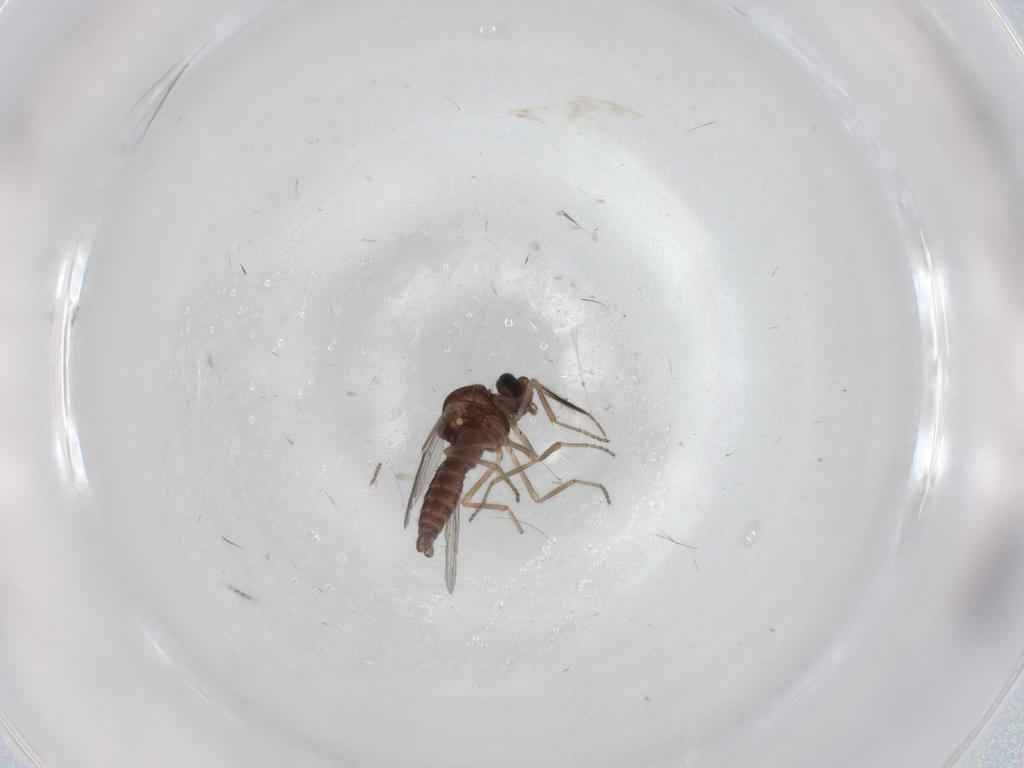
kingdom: Animalia
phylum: Arthropoda
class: Insecta
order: Diptera
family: Ceratopogonidae
